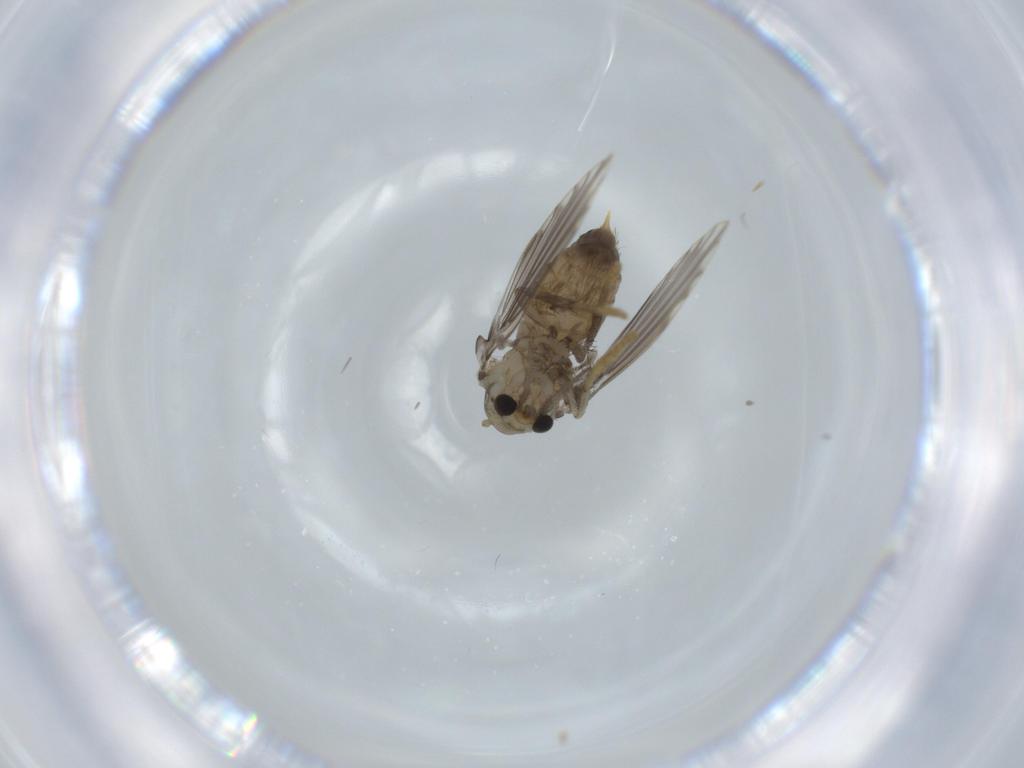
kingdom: Animalia
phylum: Arthropoda
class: Insecta
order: Diptera
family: Psychodidae
